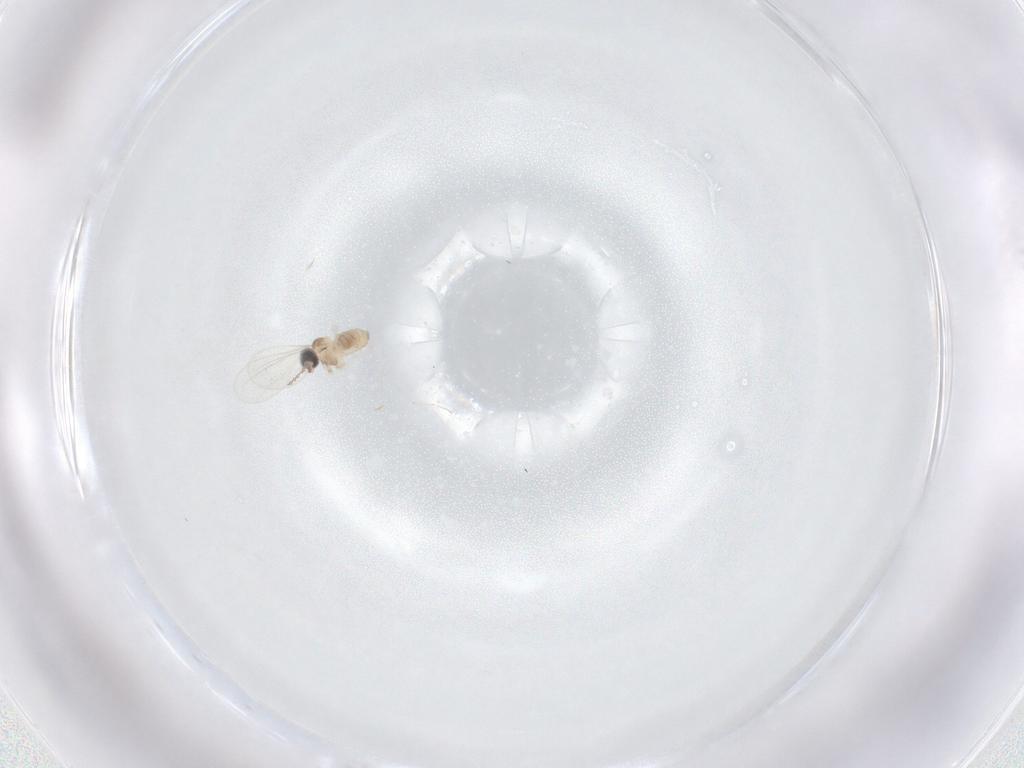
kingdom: Animalia
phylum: Arthropoda
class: Insecta
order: Diptera
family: Cecidomyiidae
